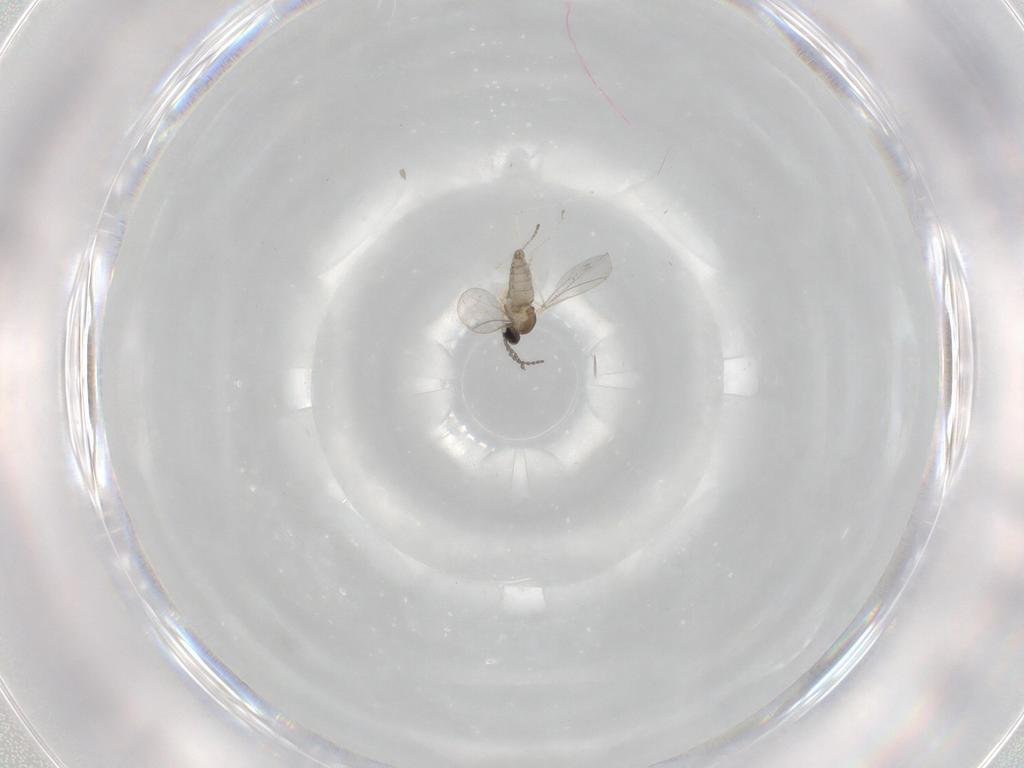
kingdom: Animalia
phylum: Arthropoda
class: Insecta
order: Diptera
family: Cecidomyiidae
